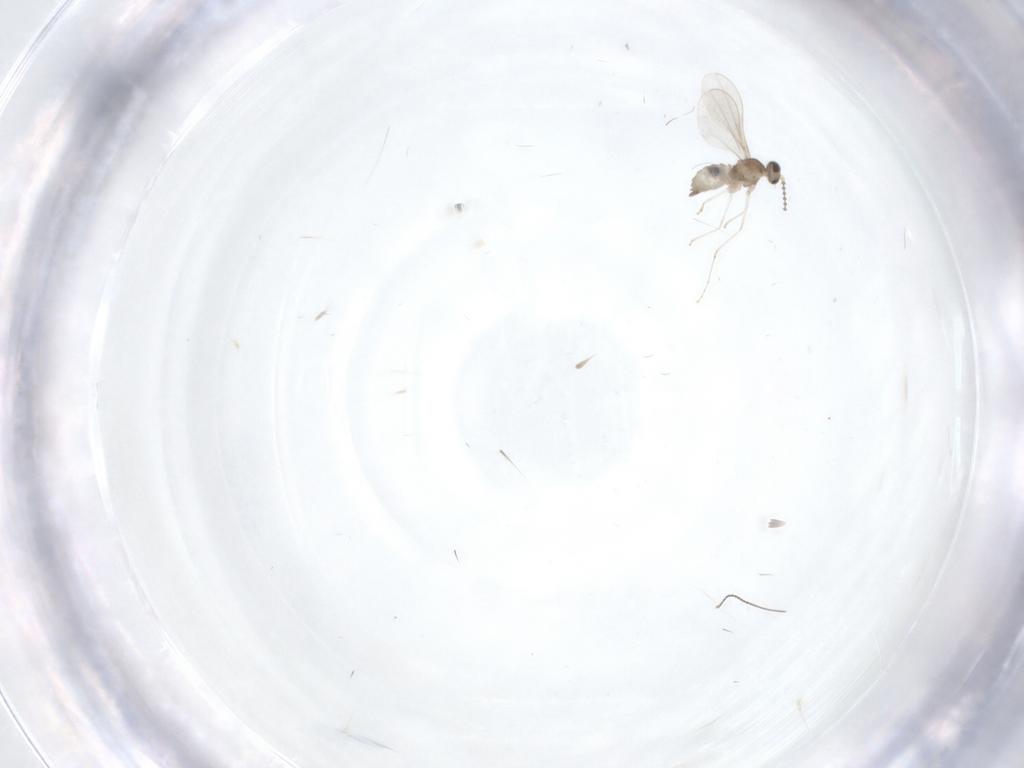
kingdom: Animalia
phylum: Arthropoda
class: Insecta
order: Diptera
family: Cecidomyiidae
